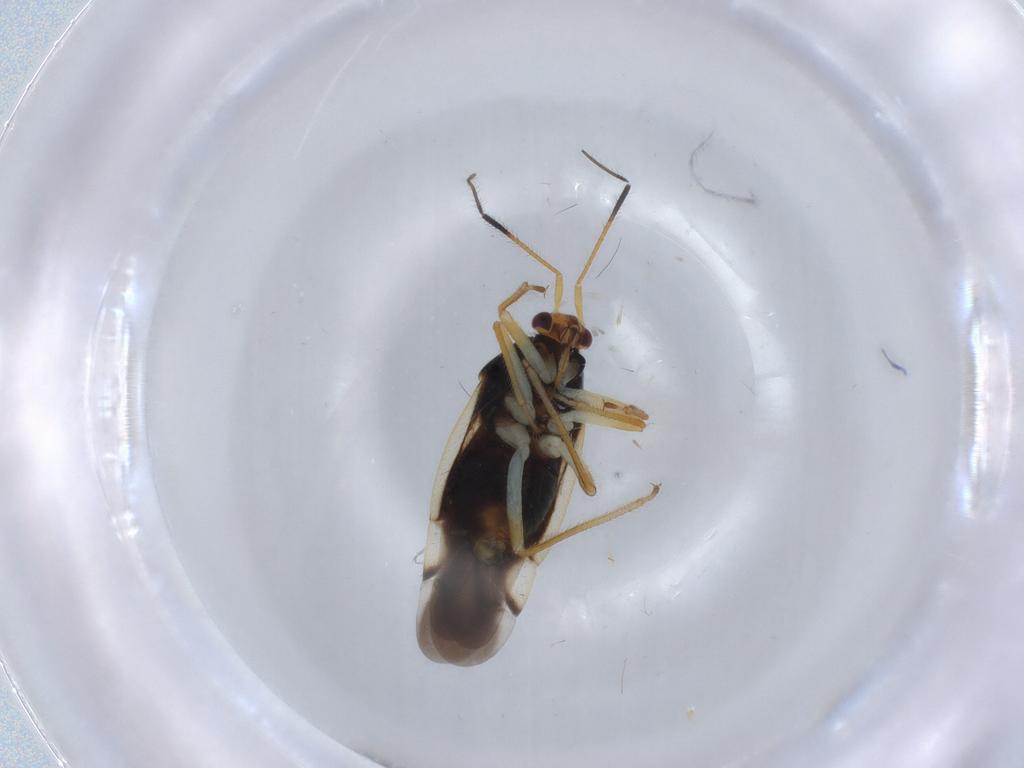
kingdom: Animalia
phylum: Arthropoda
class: Insecta
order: Hemiptera
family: Miridae
